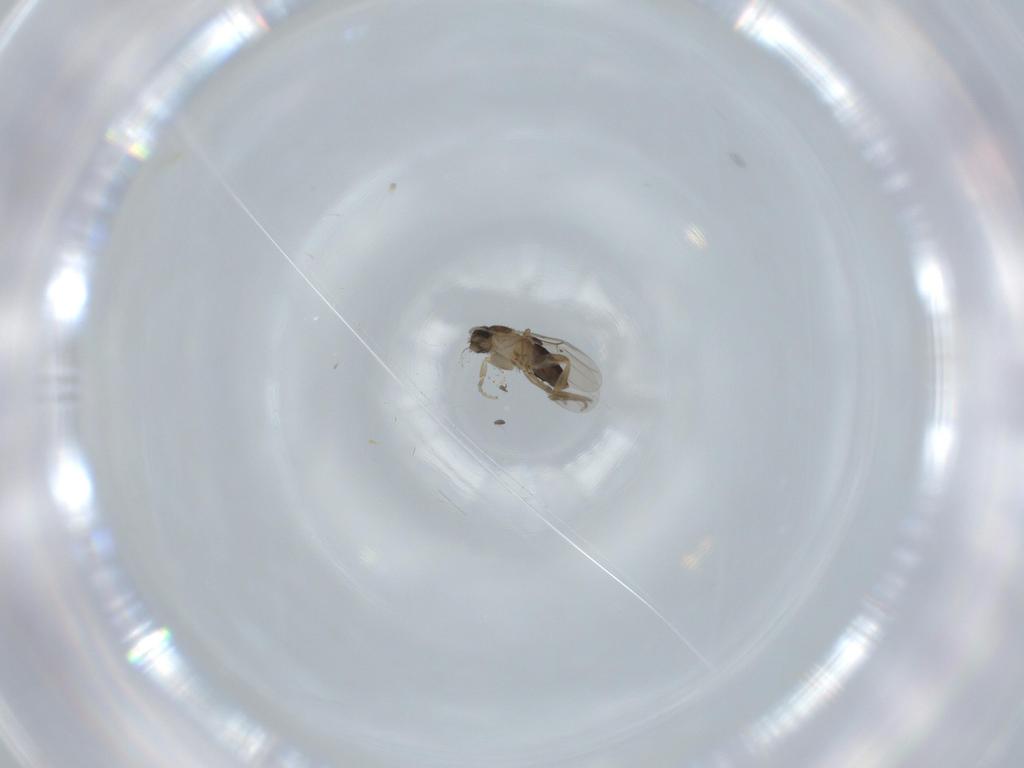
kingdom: Animalia
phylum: Arthropoda
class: Insecta
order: Diptera
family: Phoridae
